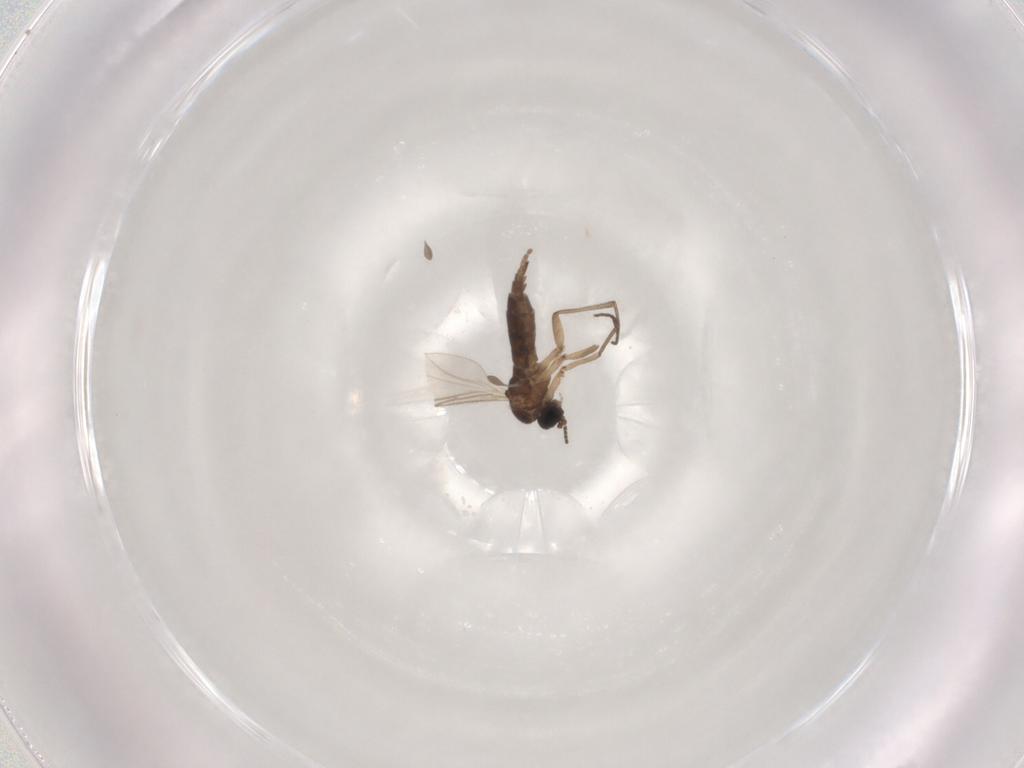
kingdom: Animalia
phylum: Arthropoda
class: Insecta
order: Diptera
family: Sciaridae
